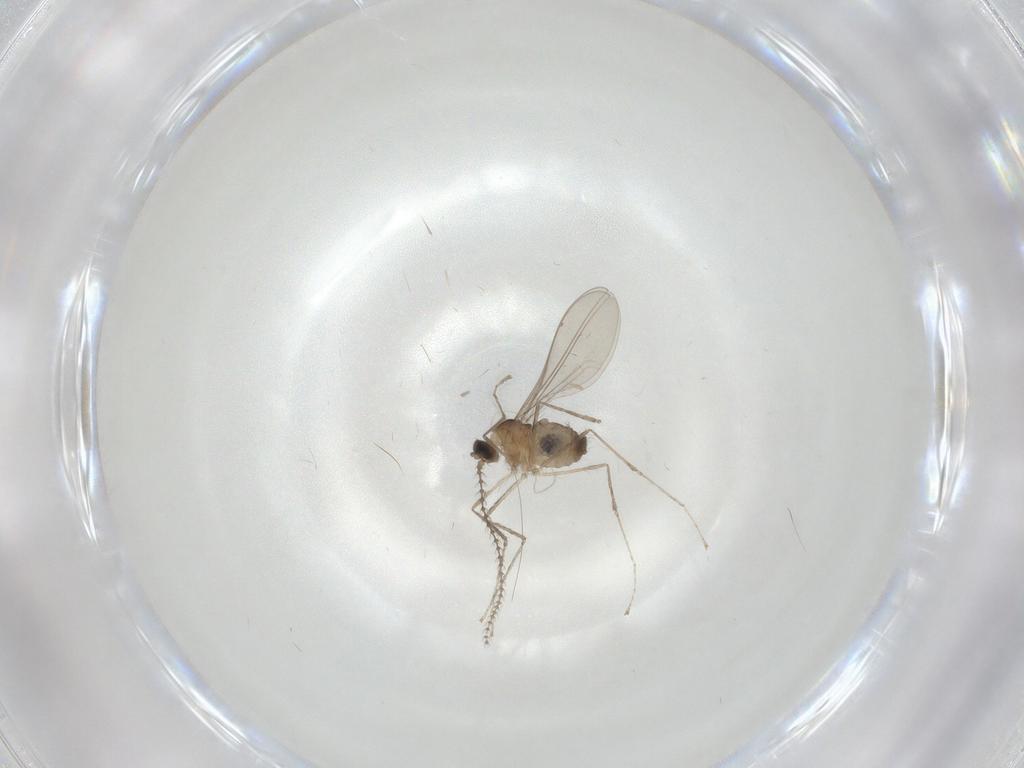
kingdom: Animalia
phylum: Arthropoda
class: Insecta
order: Diptera
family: Cecidomyiidae
